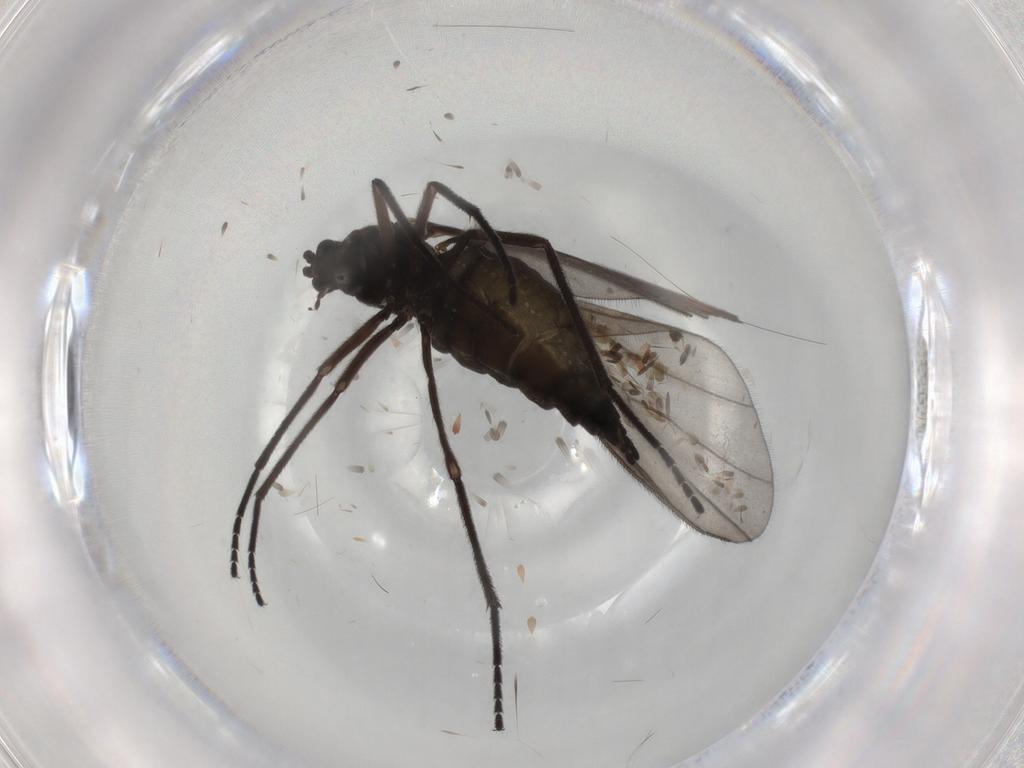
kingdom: Animalia
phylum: Arthropoda
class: Insecta
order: Diptera
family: Sciaridae
